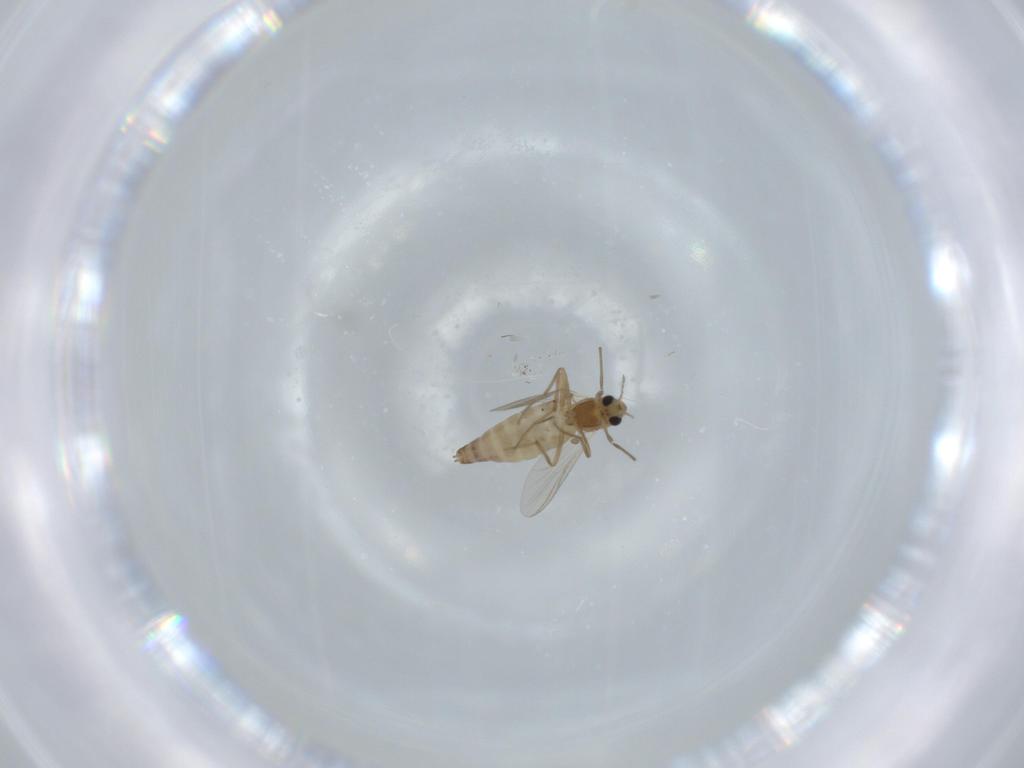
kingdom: Animalia
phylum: Arthropoda
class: Insecta
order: Diptera
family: Chironomidae
